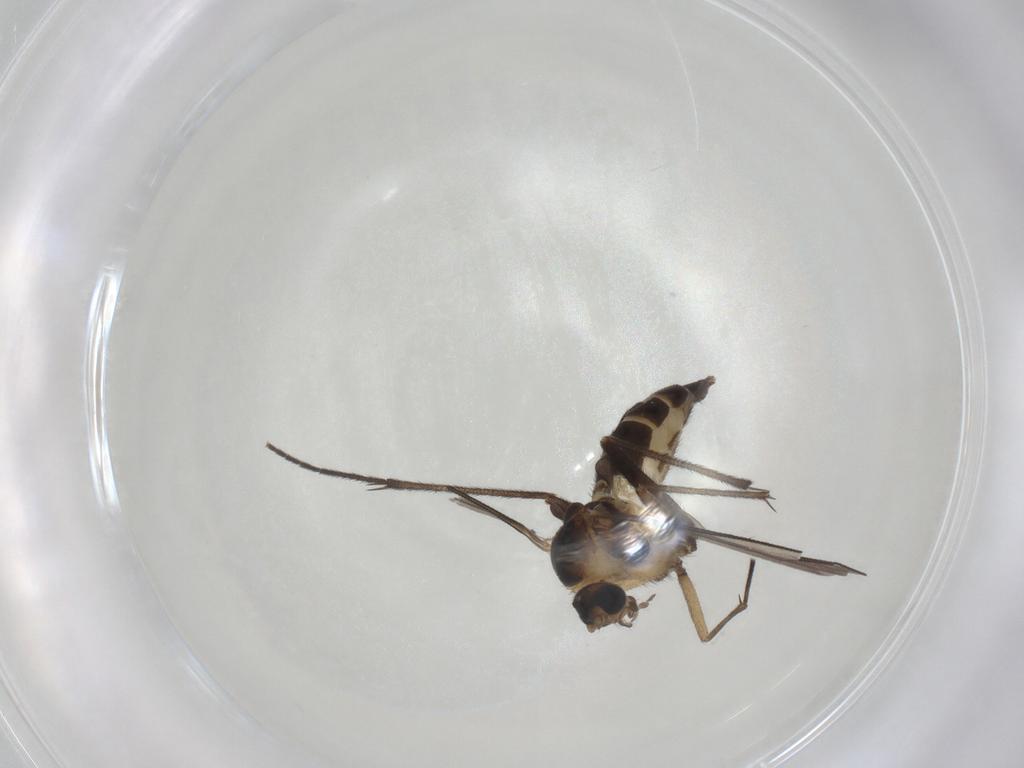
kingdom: Animalia
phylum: Arthropoda
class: Insecta
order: Diptera
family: Sciaridae
